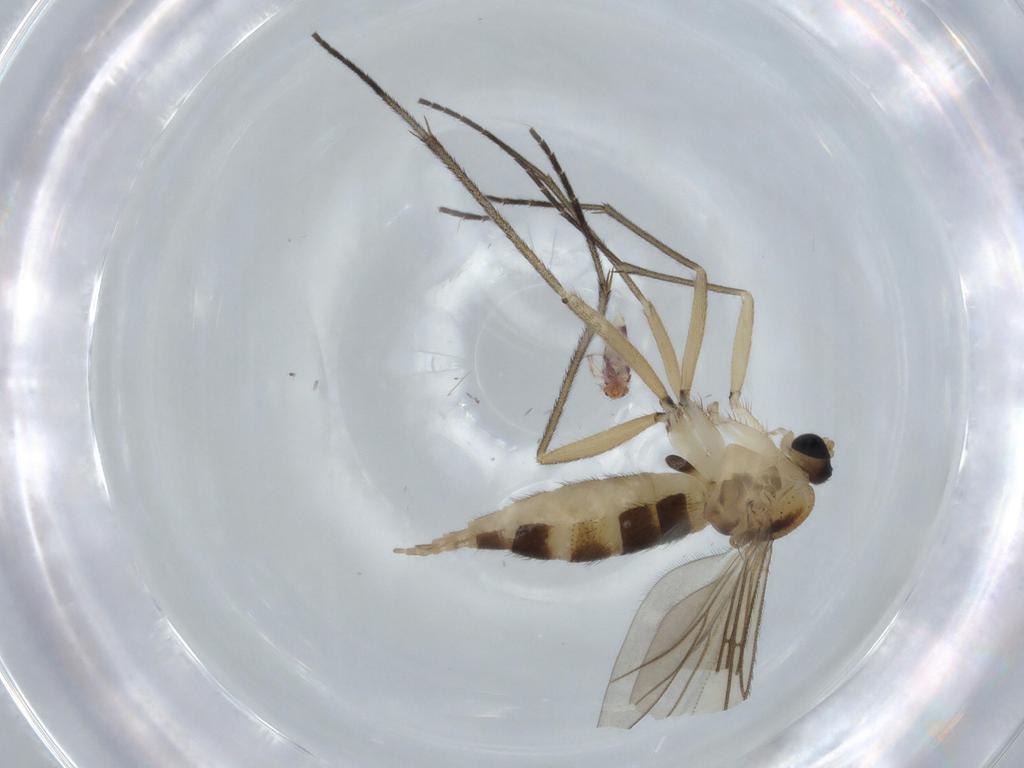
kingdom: Animalia
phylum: Arthropoda
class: Insecta
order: Diptera
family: Sciaridae
